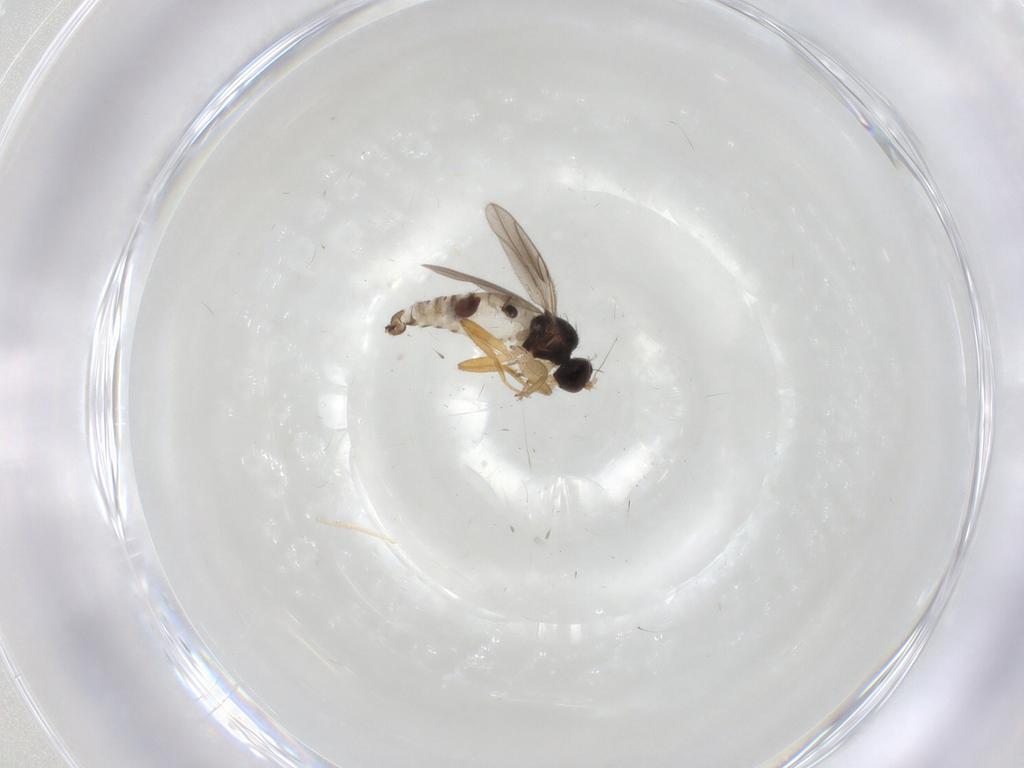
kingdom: Animalia
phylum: Arthropoda
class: Insecta
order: Diptera
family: Hybotidae
